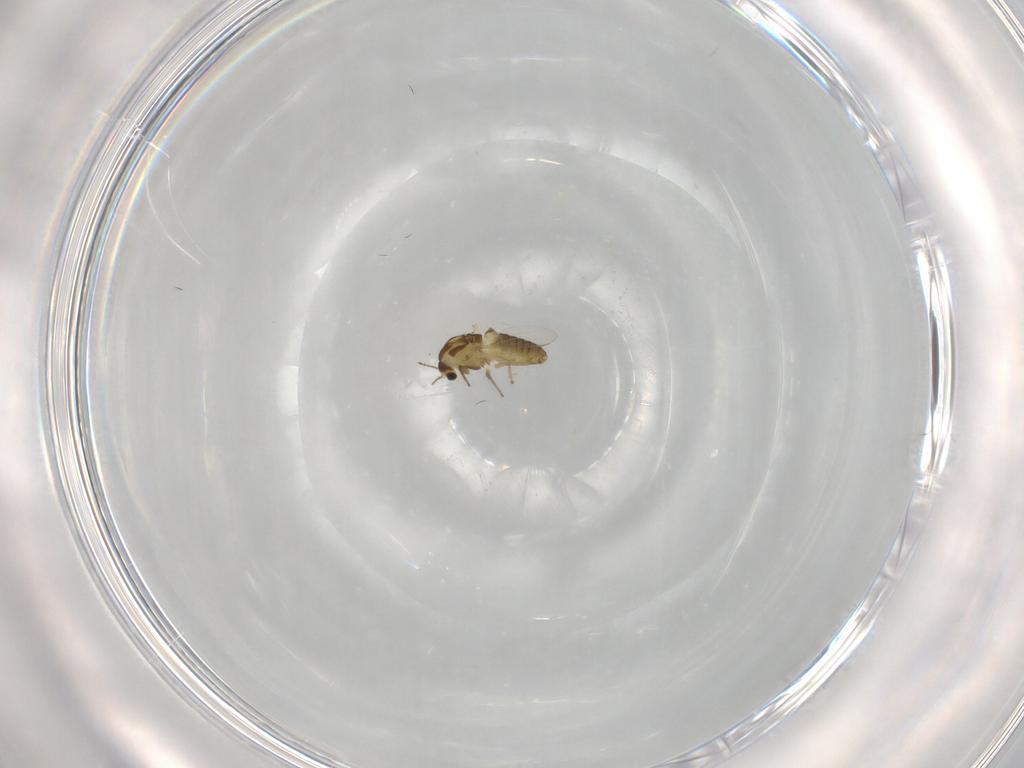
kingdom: Animalia
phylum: Arthropoda
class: Insecta
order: Diptera
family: Chironomidae
